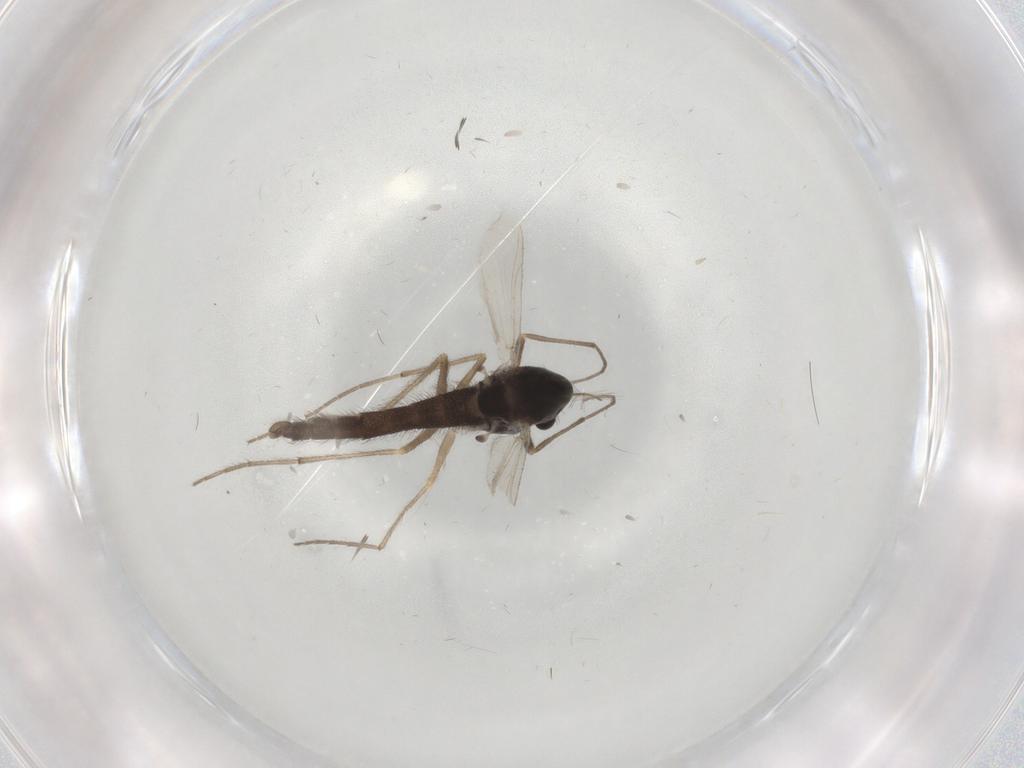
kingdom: Animalia
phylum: Arthropoda
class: Insecta
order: Diptera
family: Chironomidae
